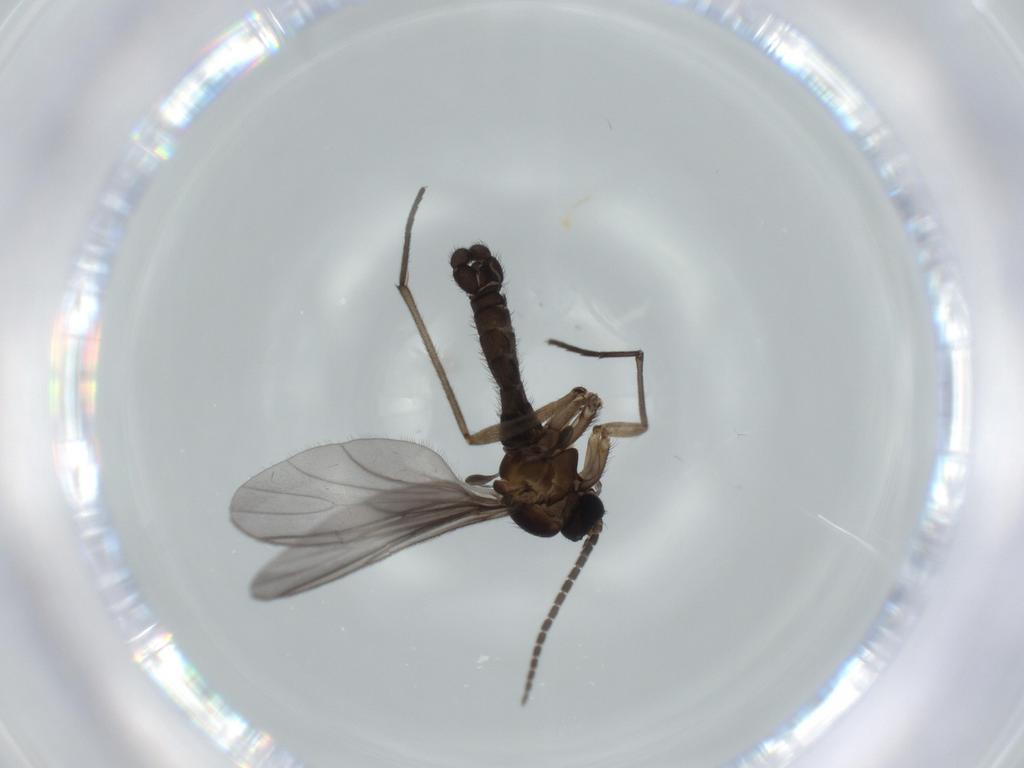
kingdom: Animalia
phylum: Arthropoda
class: Insecta
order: Diptera
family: Sciaridae
